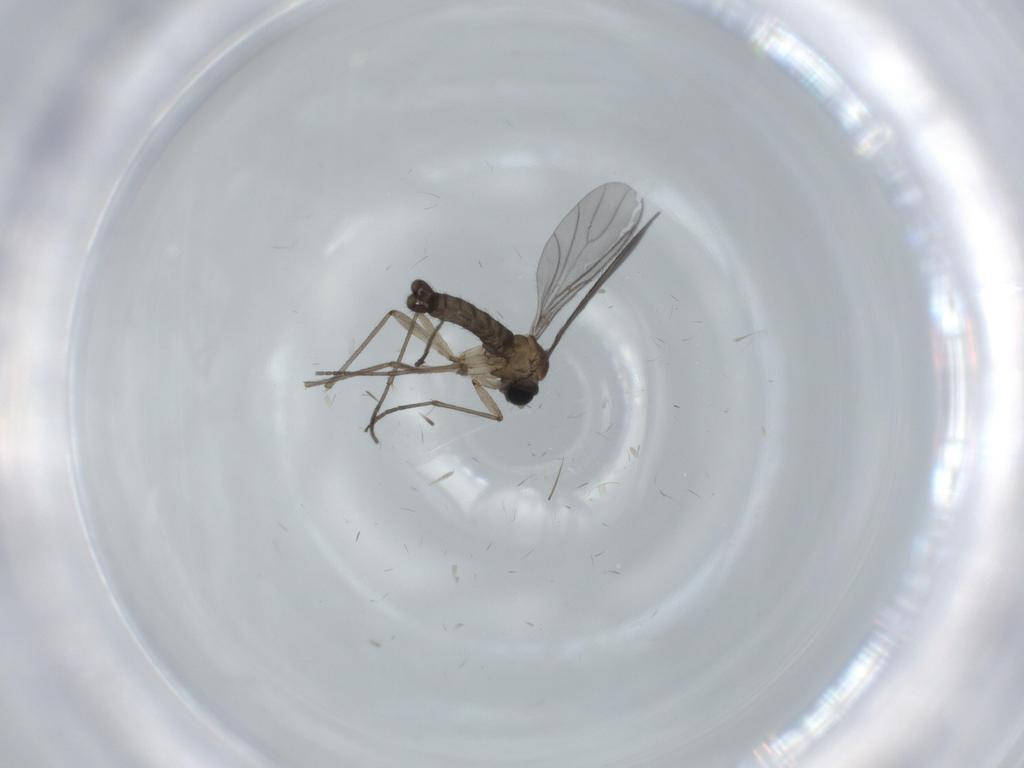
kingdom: Animalia
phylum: Arthropoda
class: Insecta
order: Diptera
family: Sciaridae
